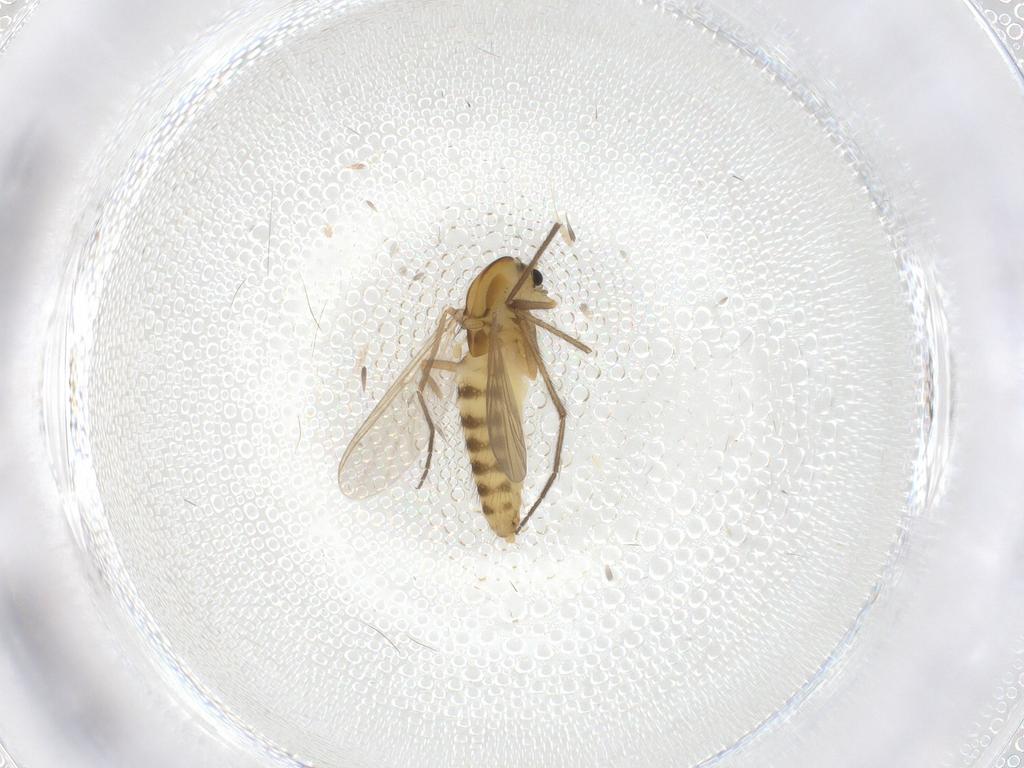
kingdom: Animalia
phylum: Arthropoda
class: Insecta
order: Diptera
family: Chironomidae
